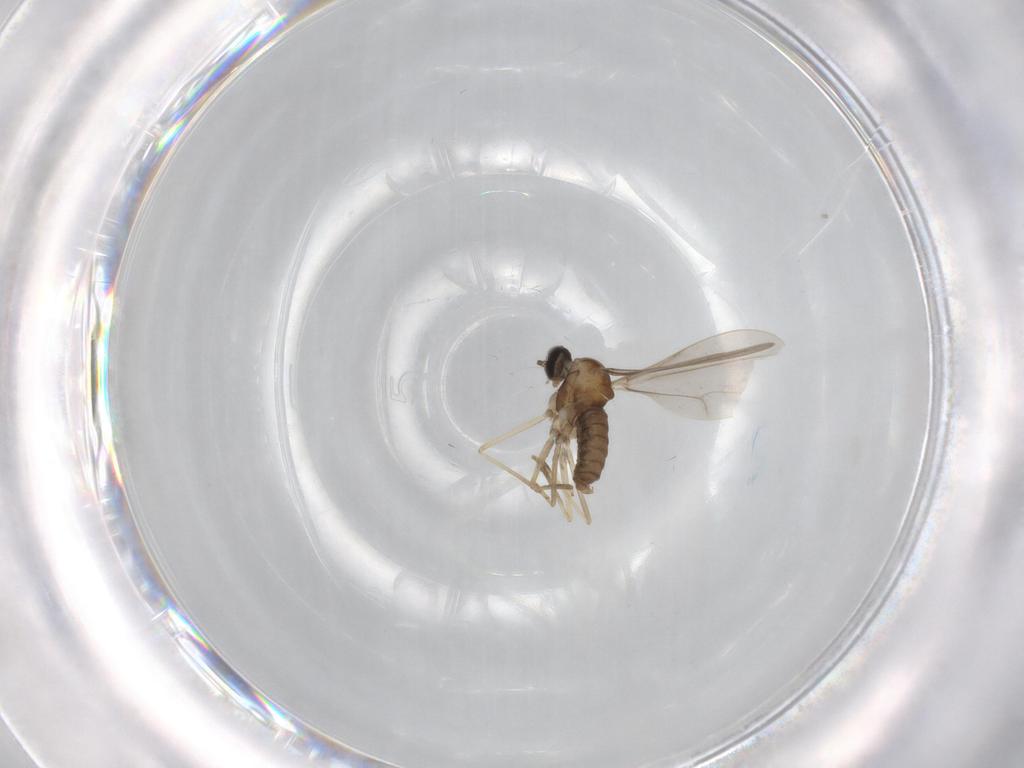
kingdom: Animalia
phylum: Arthropoda
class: Insecta
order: Diptera
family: Cecidomyiidae
